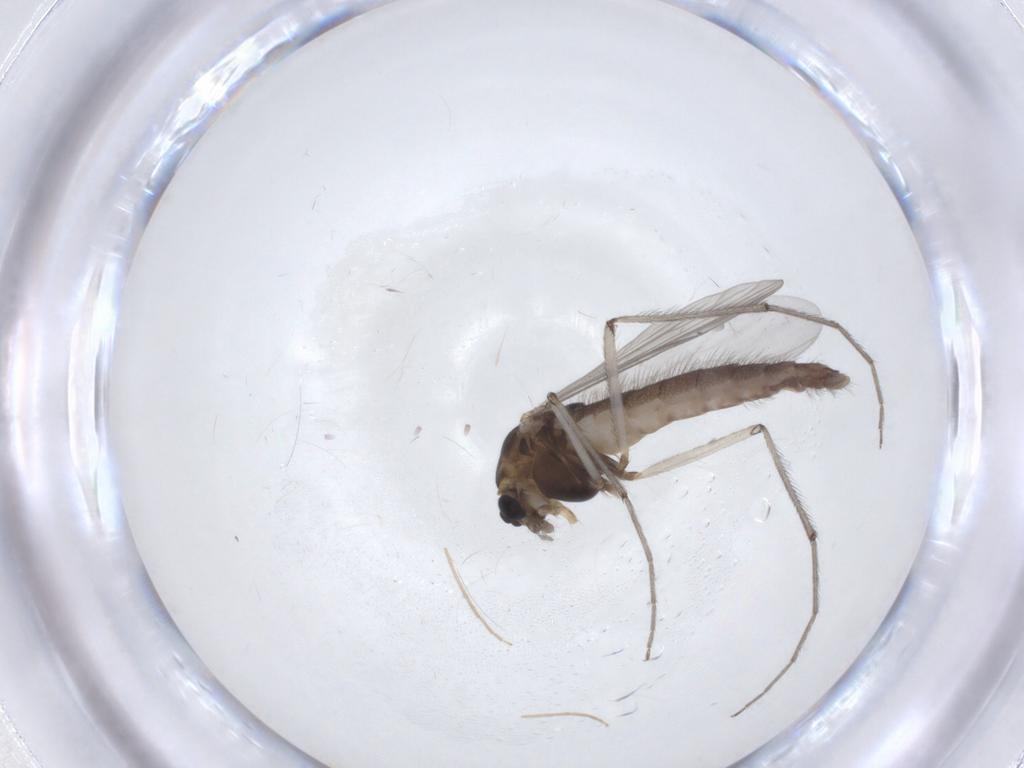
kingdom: Animalia
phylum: Arthropoda
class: Insecta
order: Diptera
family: Chironomidae
